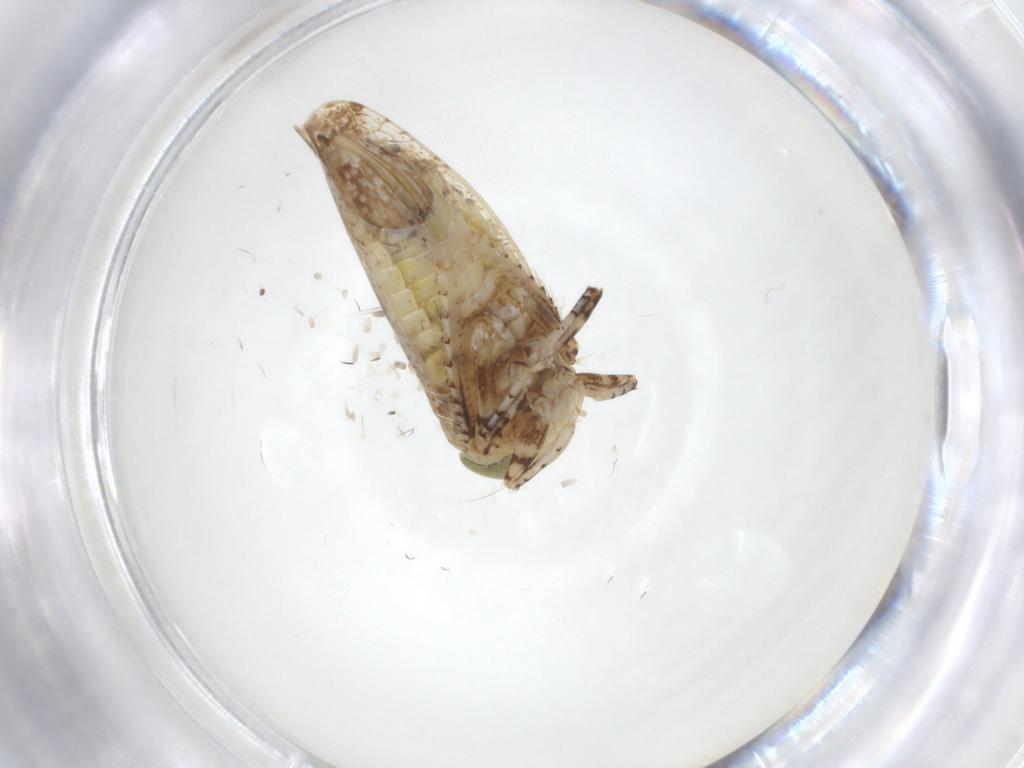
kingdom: Animalia
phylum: Arthropoda
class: Insecta
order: Hemiptera
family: Cicadellidae
